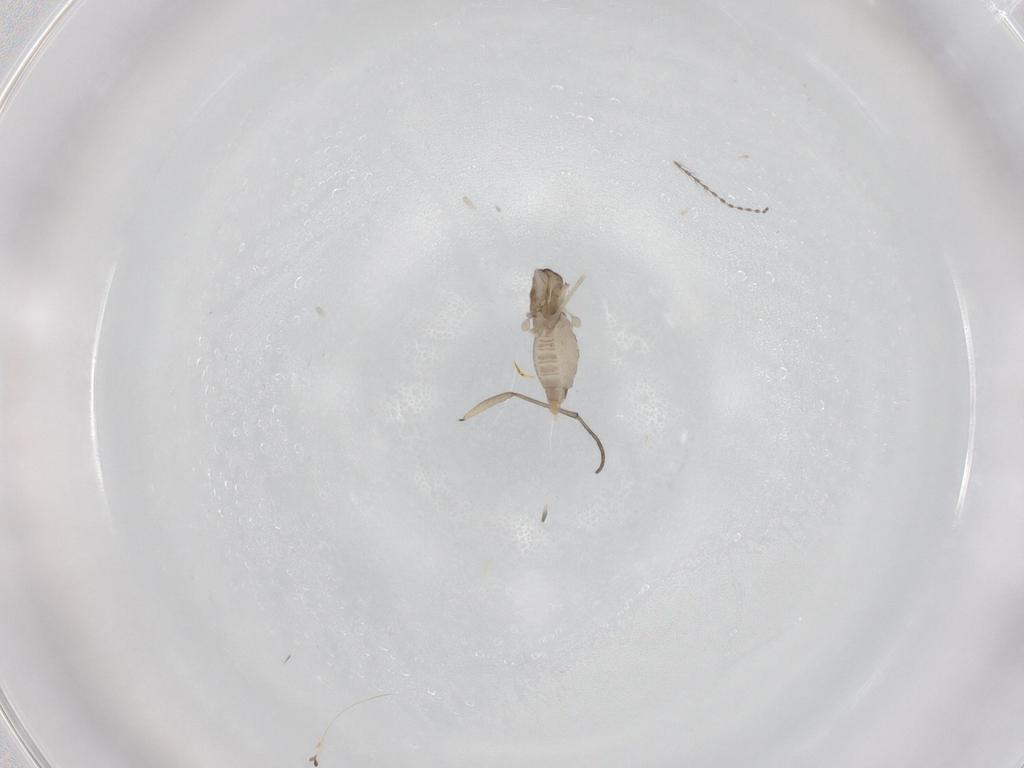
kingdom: Animalia
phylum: Arthropoda
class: Insecta
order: Diptera
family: Cecidomyiidae
